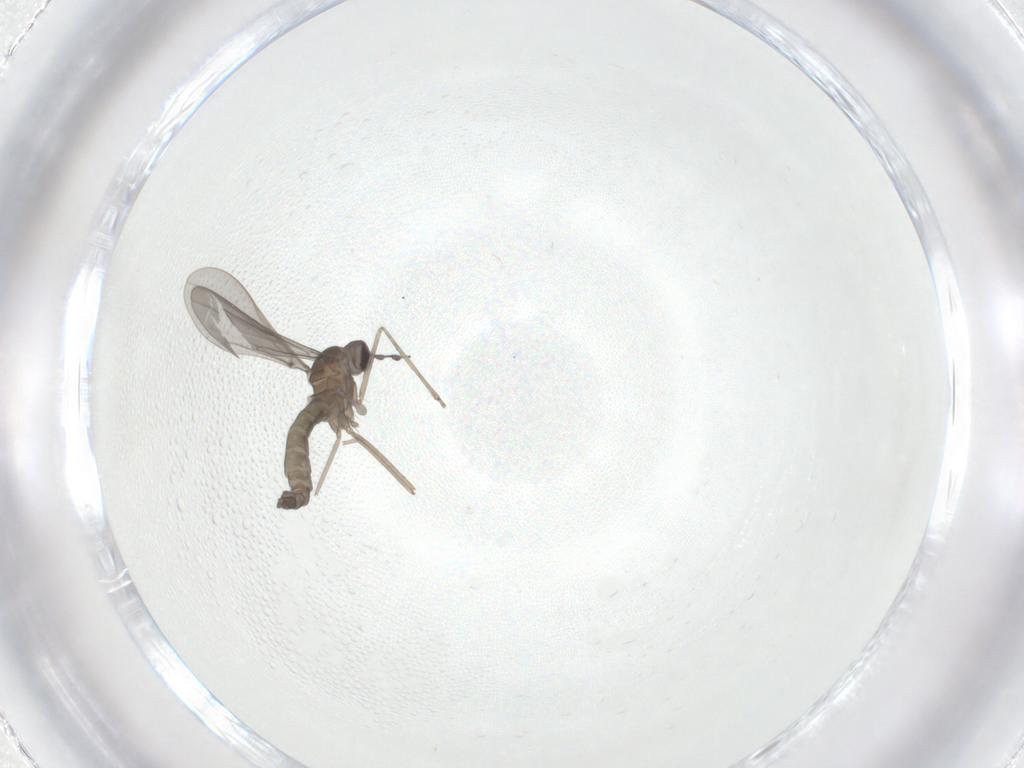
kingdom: Animalia
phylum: Arthropoda
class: Insecta
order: Diptera
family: Cecidomyiidae
